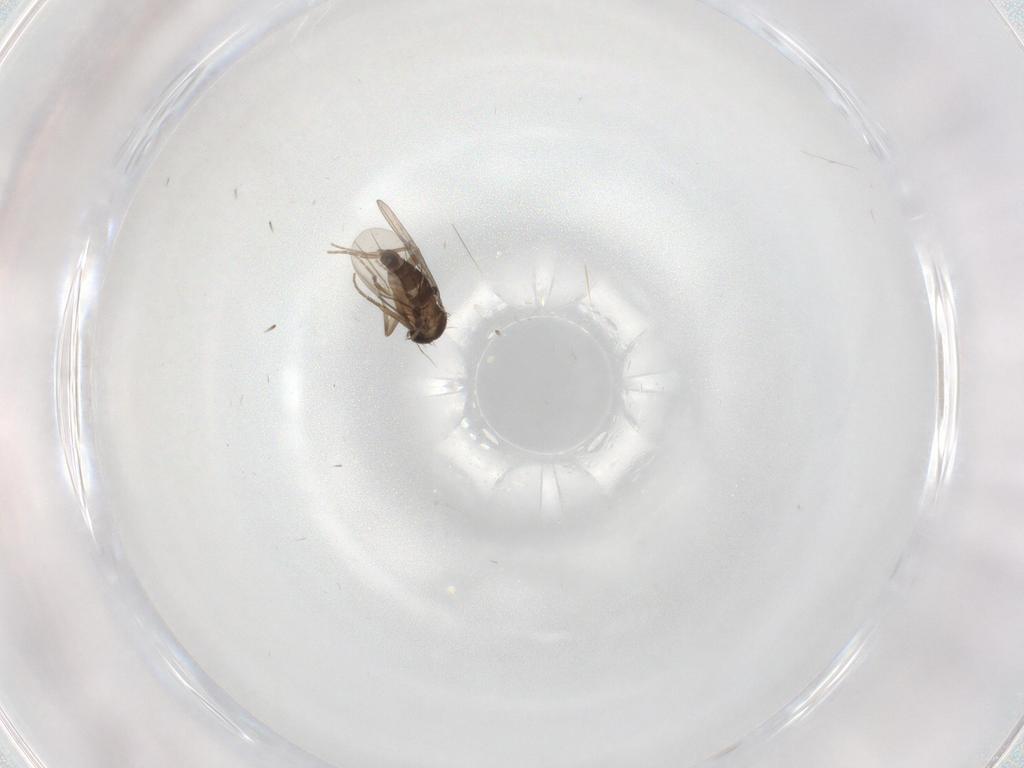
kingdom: Animalia
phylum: Arthropoda
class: Insecta
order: Diptera
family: Phoridae
